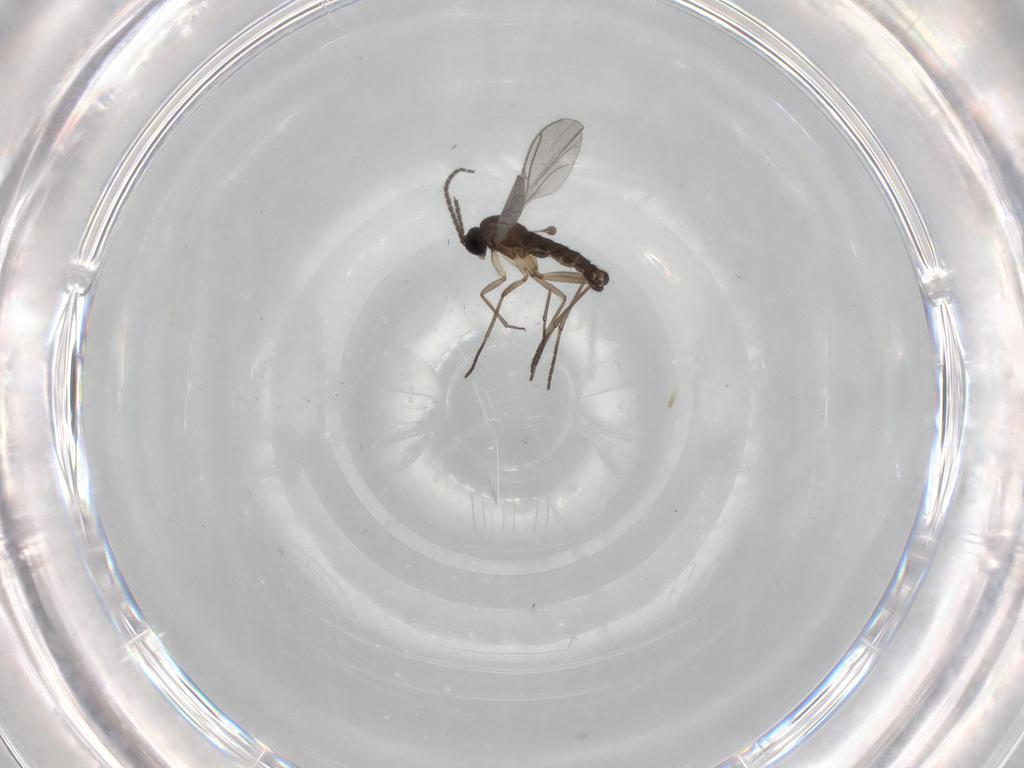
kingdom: Animalia
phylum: Arthropoda
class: Insecta
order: Diptera
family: Sciaridae
